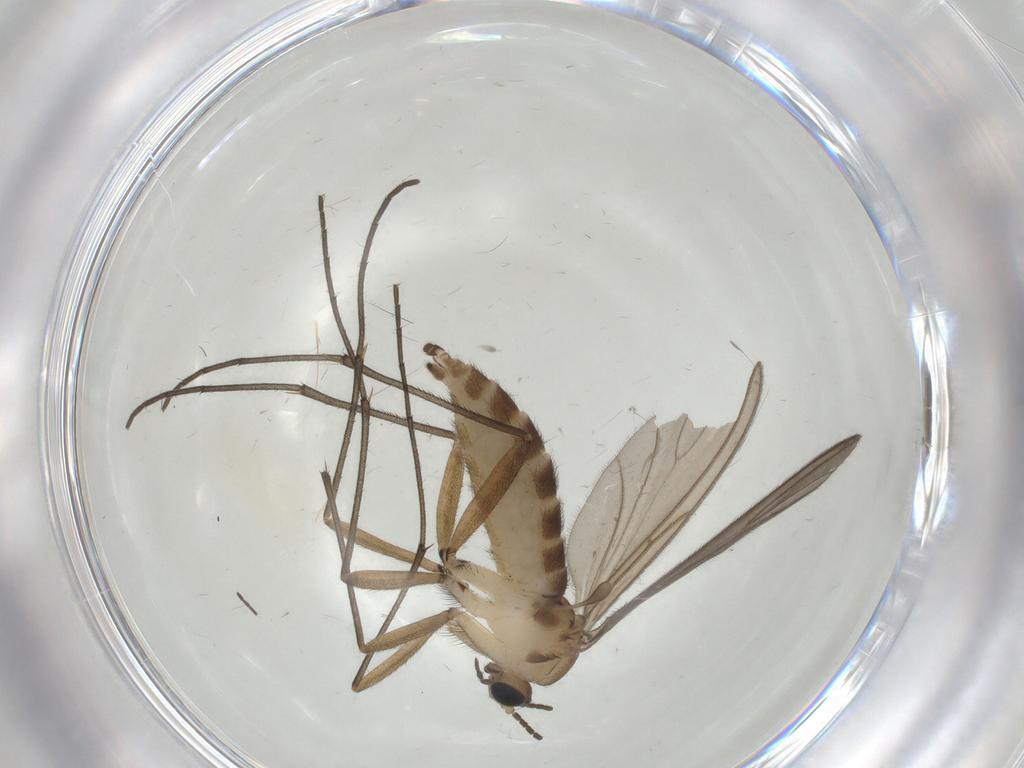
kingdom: Animalia
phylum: Arthropoda
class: Insecta
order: Diptera
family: Sciaridae
